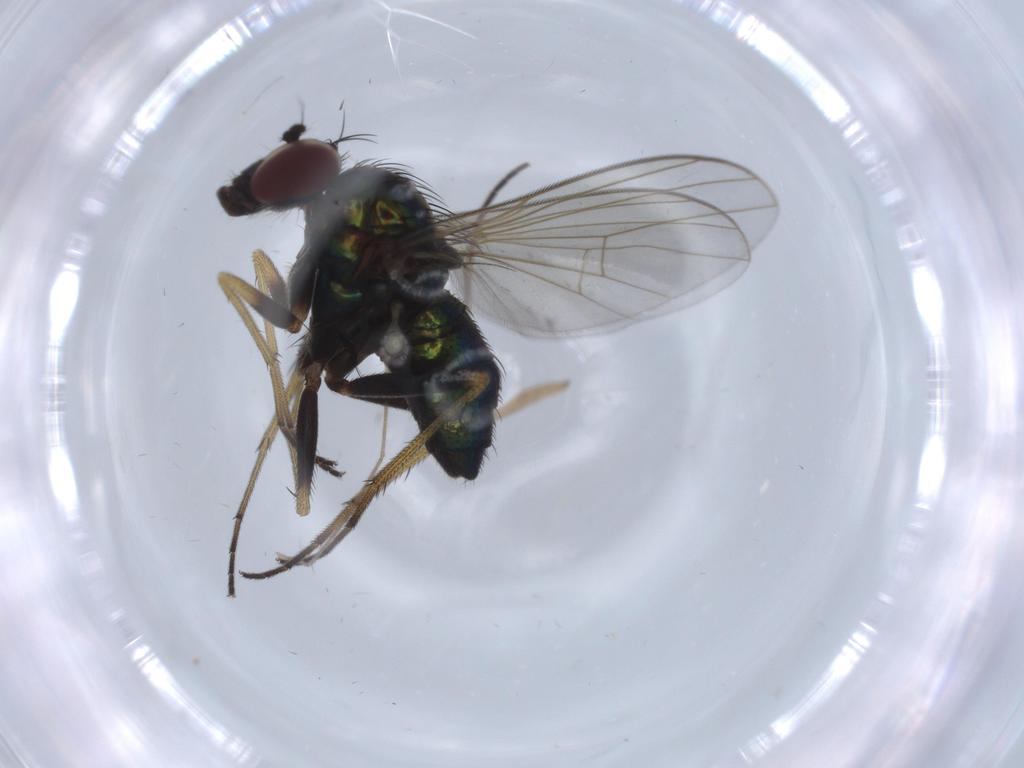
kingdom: Animalia
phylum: Arthropoda
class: Insecta
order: Diptera
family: Dolichopodidae
